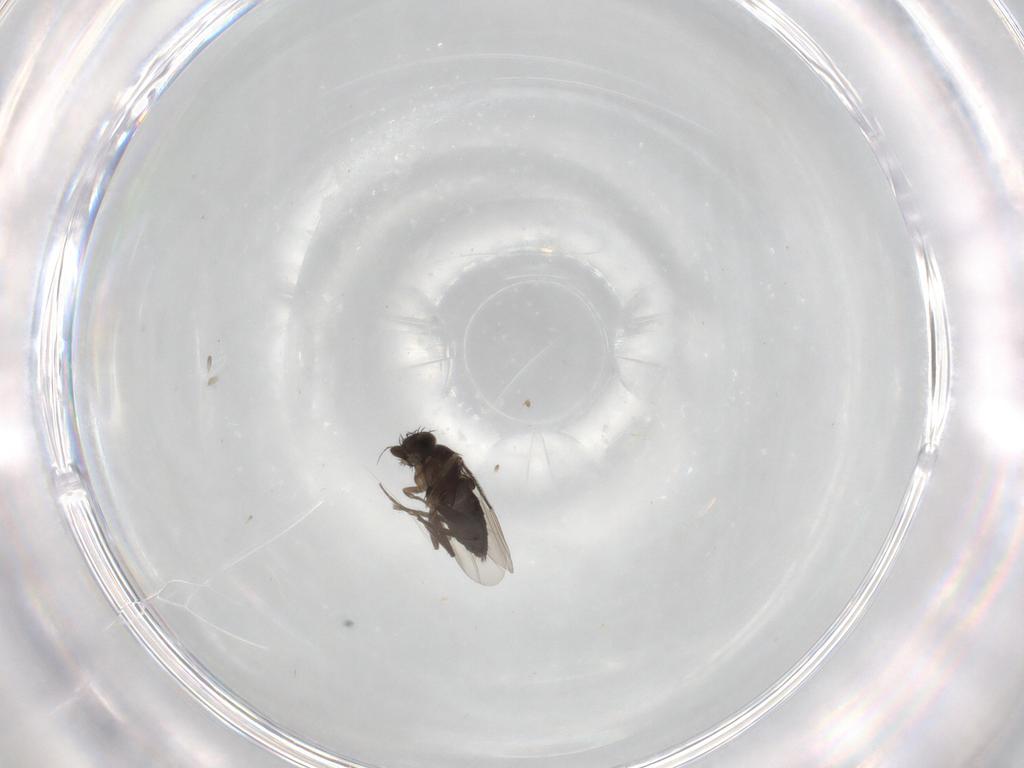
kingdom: Animalia
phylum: Arthropoda
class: Insecta
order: Diptera
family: Phoridae
